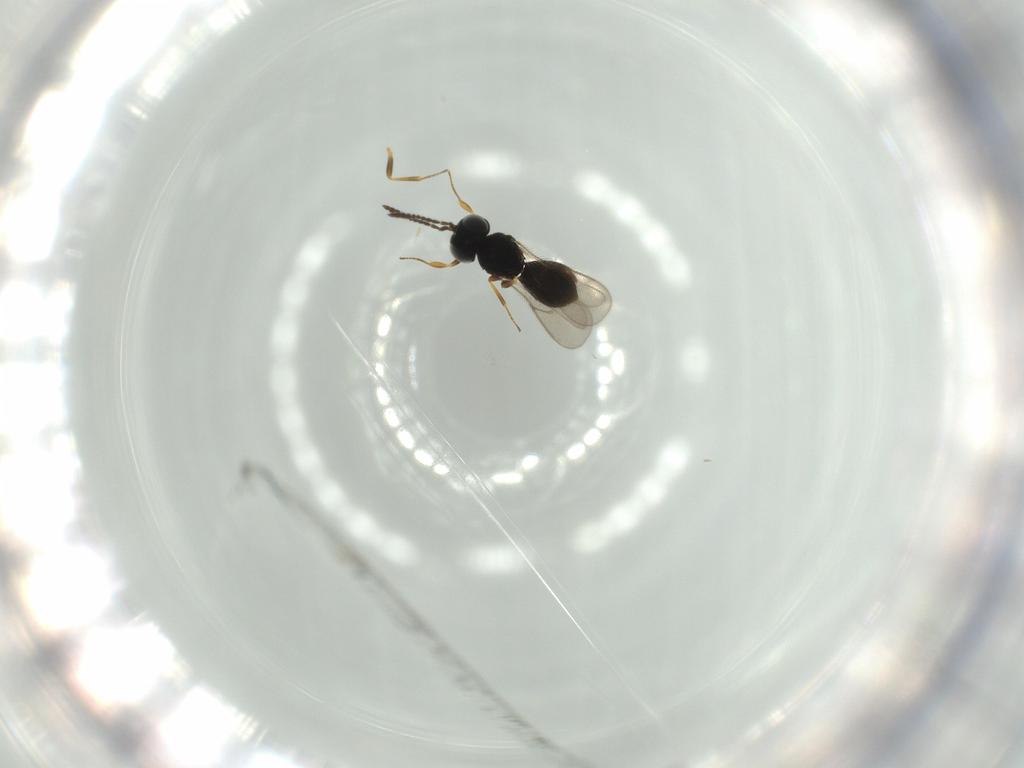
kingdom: Animalia
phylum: Arthropoda
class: Insecta
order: Hymenoptera
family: Scelionidae
